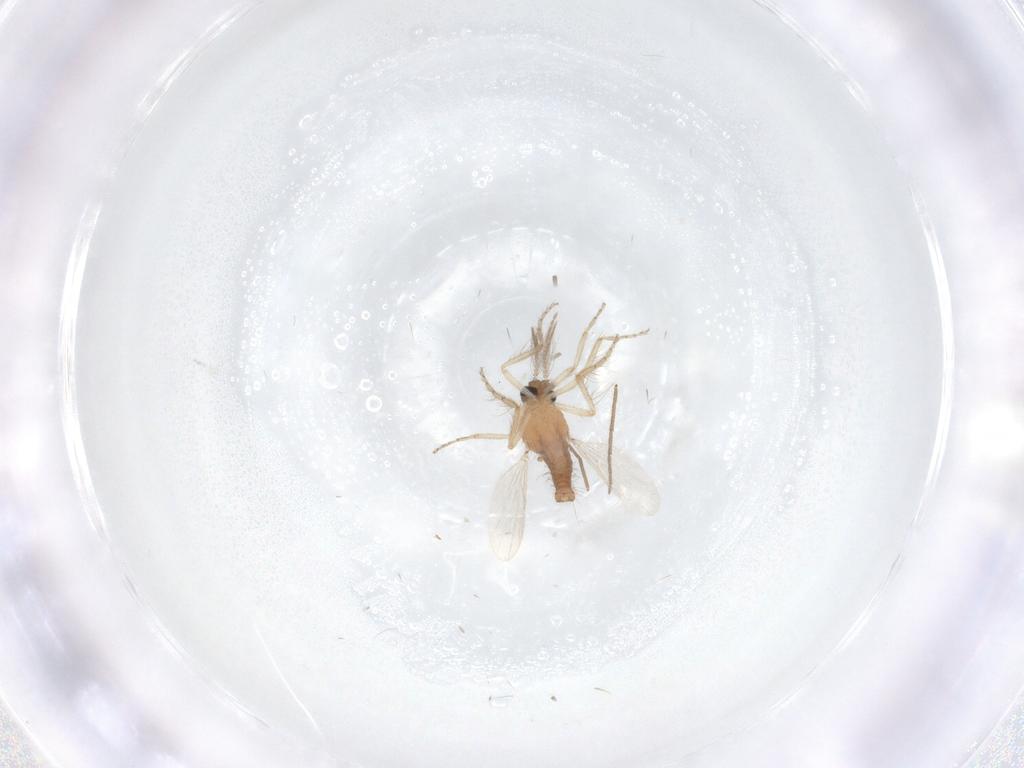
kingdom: Animalia
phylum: Arthropoda
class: Insecta
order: Diptera
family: Ceratopogonidae
